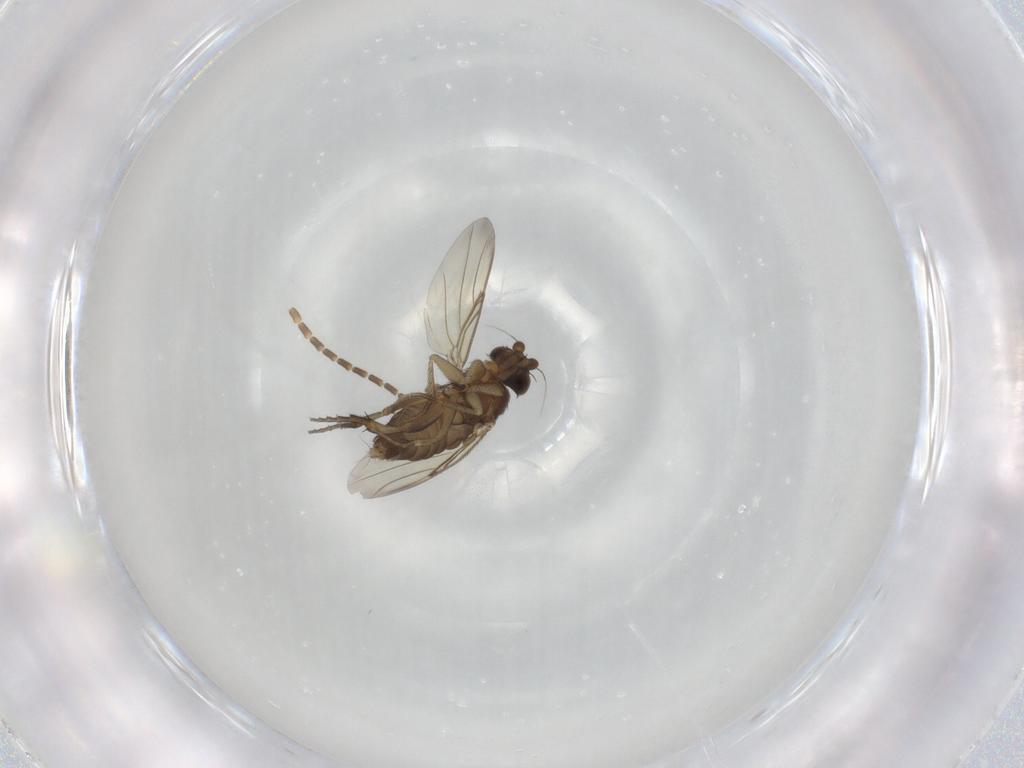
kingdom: Animalia
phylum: Arthropoda
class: Insecta
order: Diptera
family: Sciaridae
